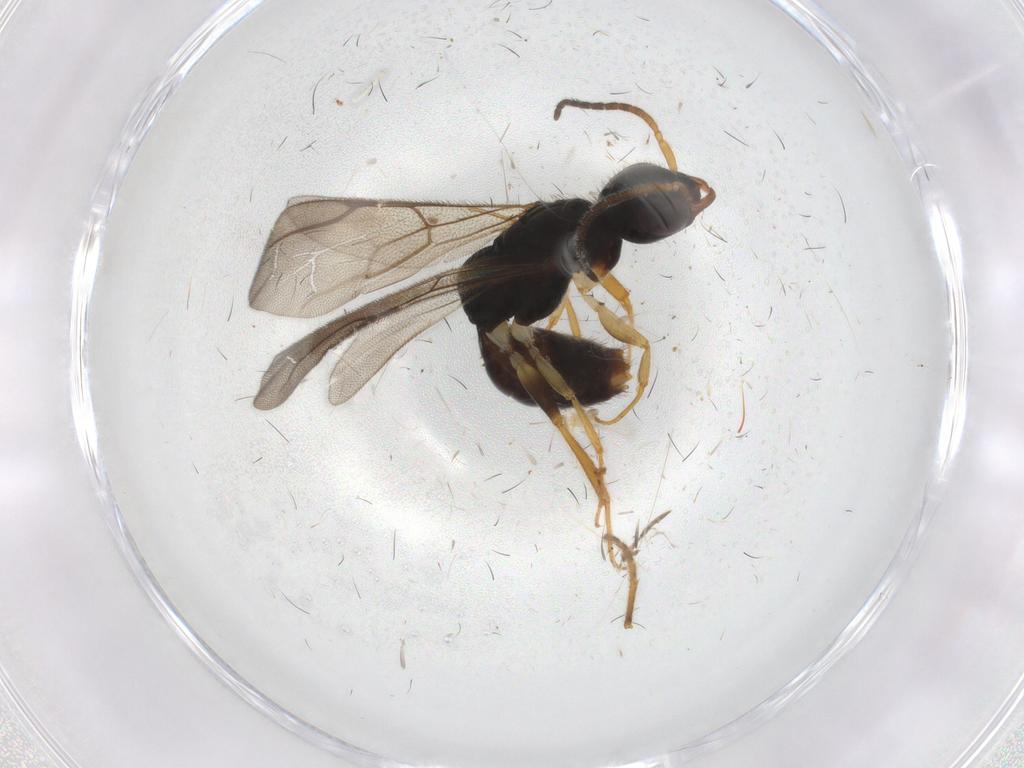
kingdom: Animalia
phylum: Arthropoda
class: Insecta
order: Hymenoptera
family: Bethylidae
